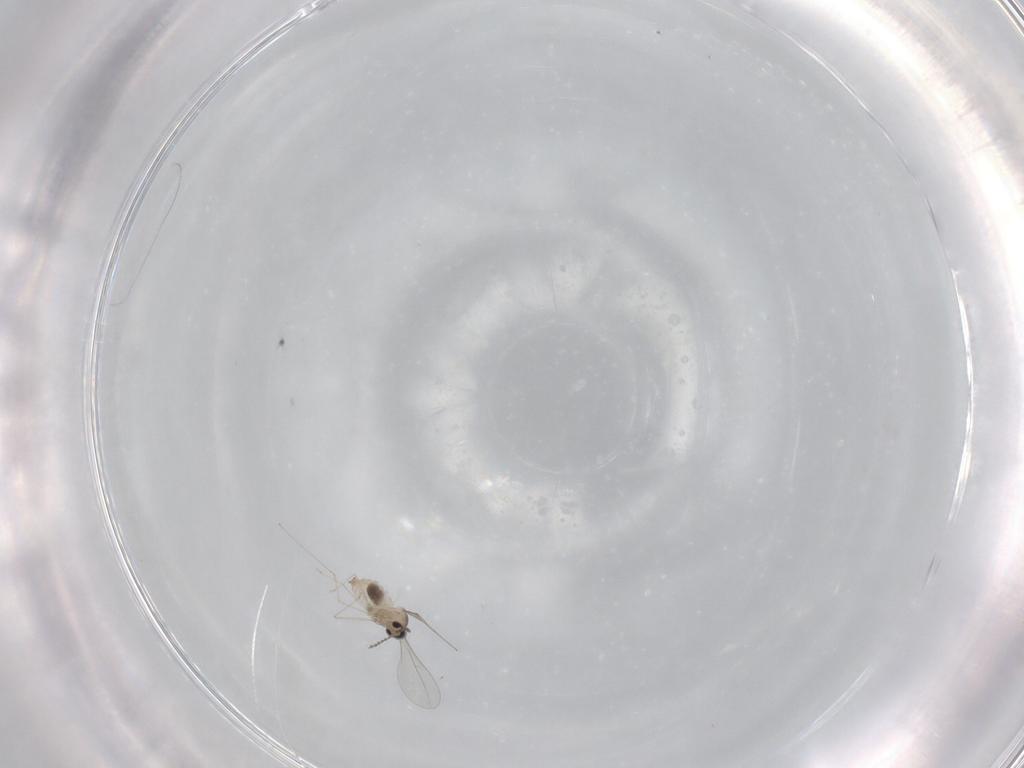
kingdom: Animalia
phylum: Arthropoda
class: Insecta
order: Diptera
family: Cecidomyiidae
